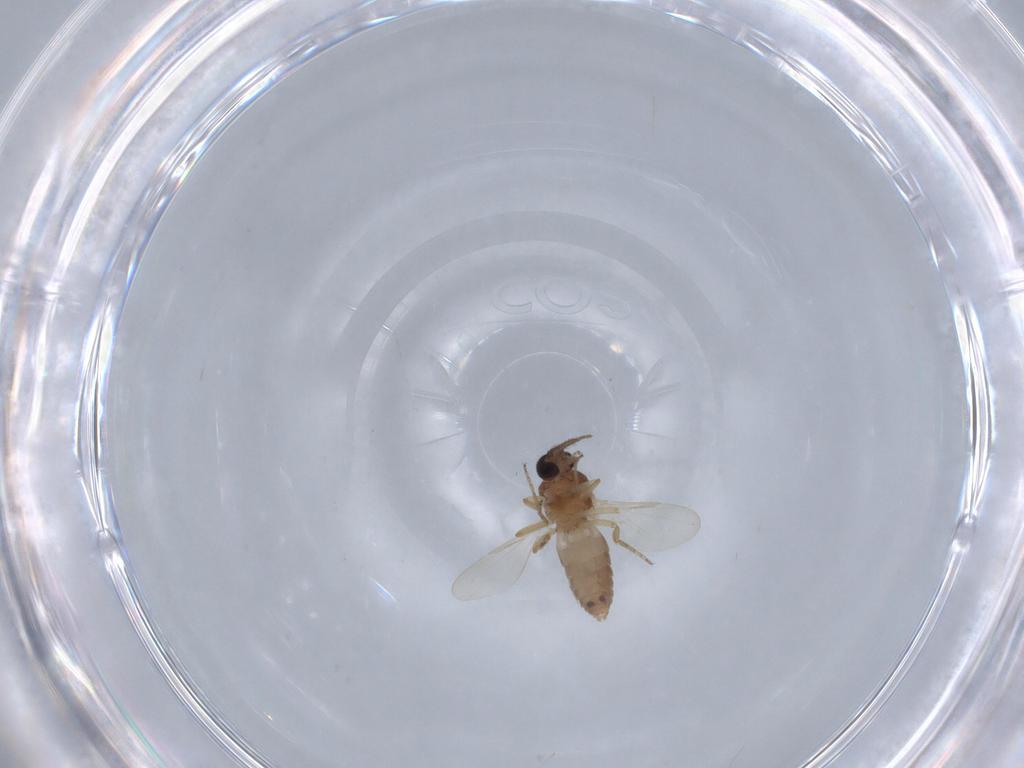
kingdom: Animalia
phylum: Arthropoda
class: Insecta
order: Diptera
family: Ceratopogonidae
